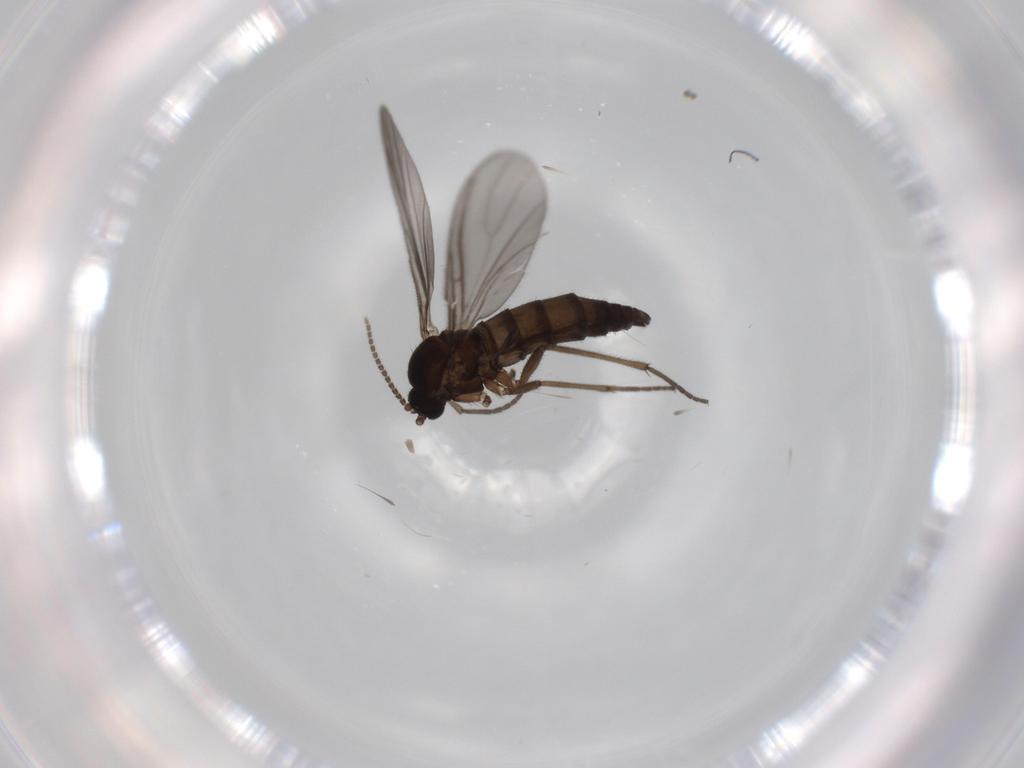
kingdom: Animalia
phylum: Arthropoda
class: Insecta
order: Diptera
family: Sciaridae
